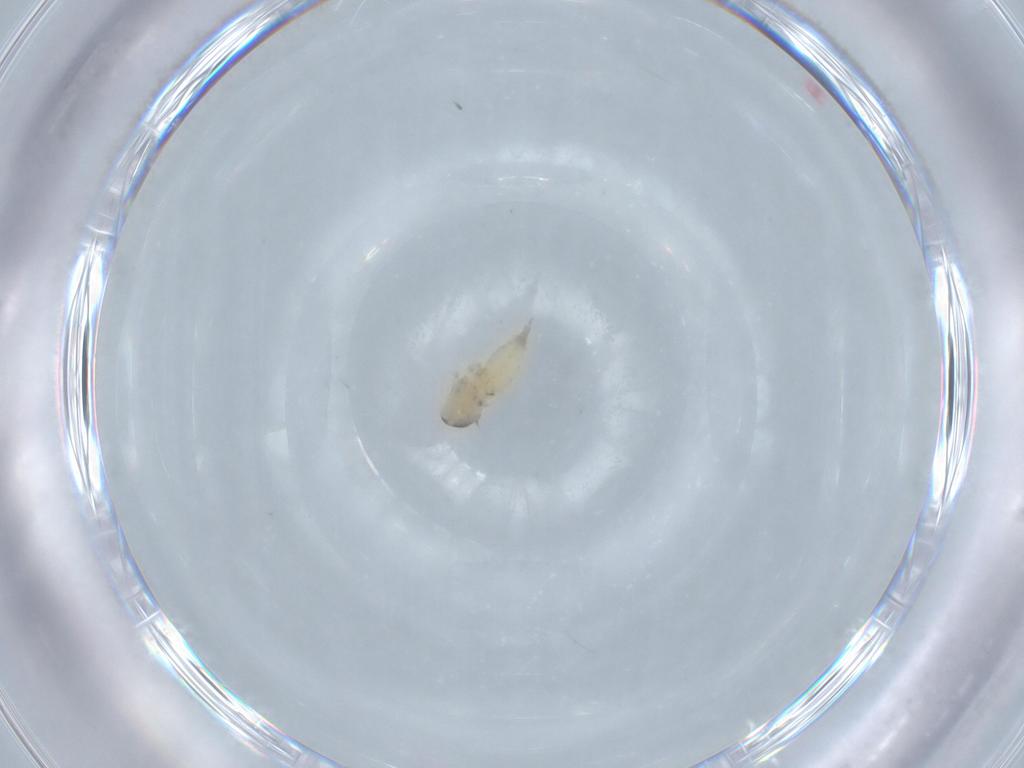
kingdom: Animalia
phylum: Arthropoda
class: Insecta
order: Diptera
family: Cecidomyiidae
